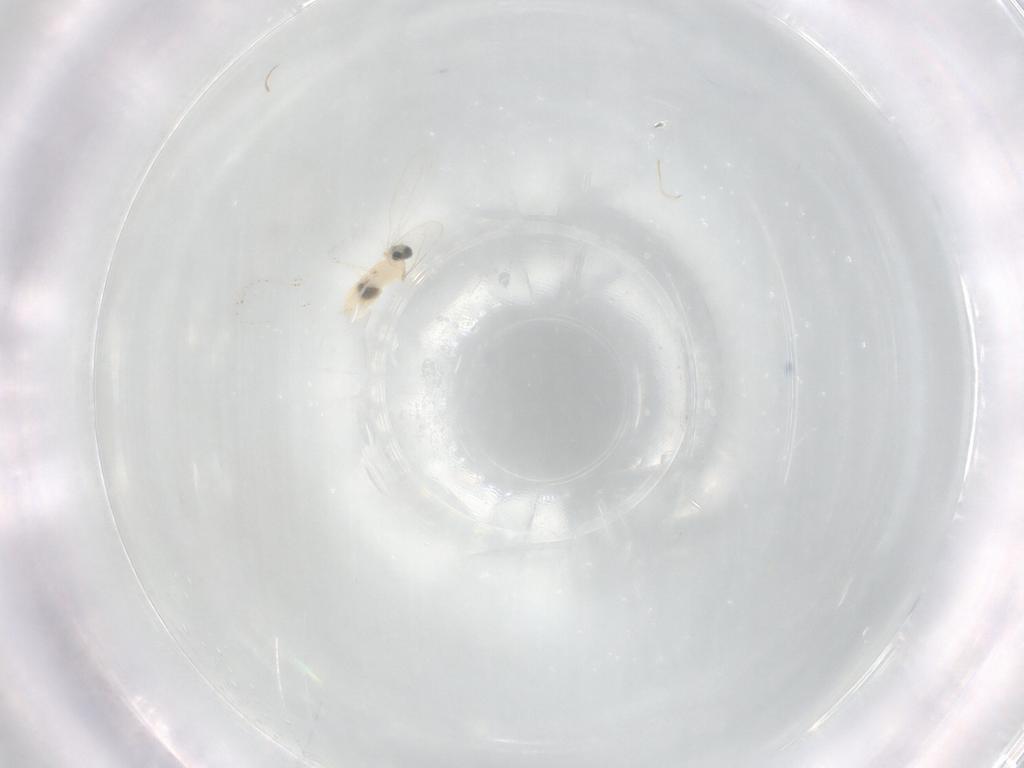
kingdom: Animalia
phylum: Arthropoda
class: Insecta
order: Diptera
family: Cecidomyiidae
